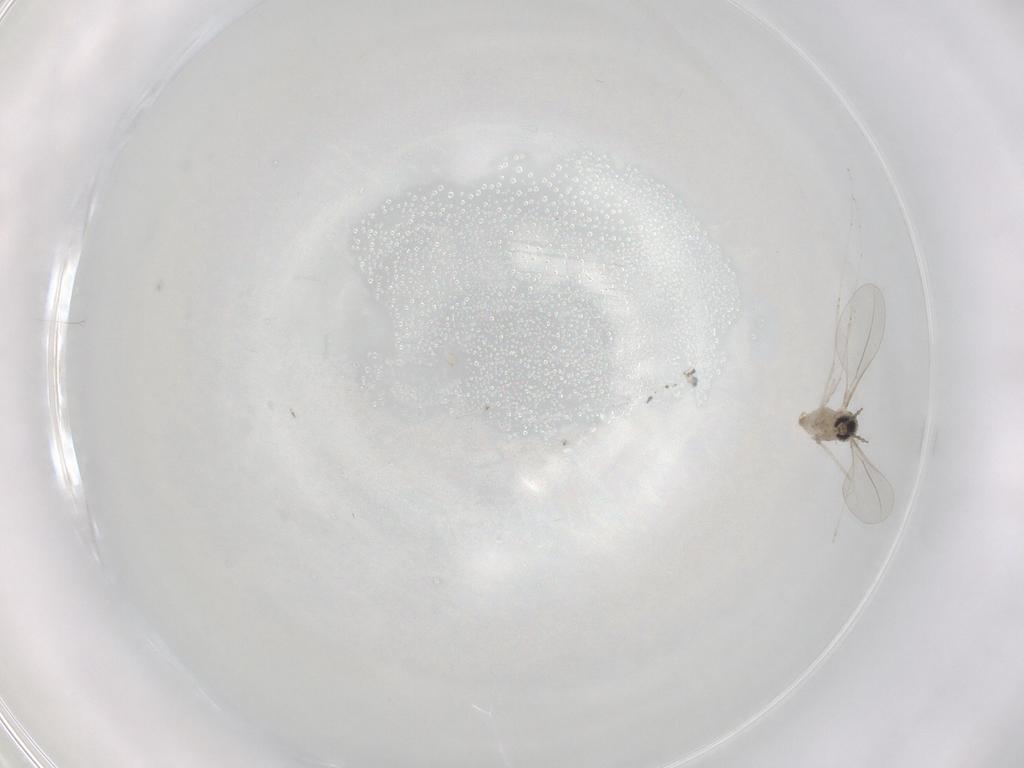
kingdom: Animalia
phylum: Arthropoda
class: Insecta
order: Diptera
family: Cecidomyiidae
